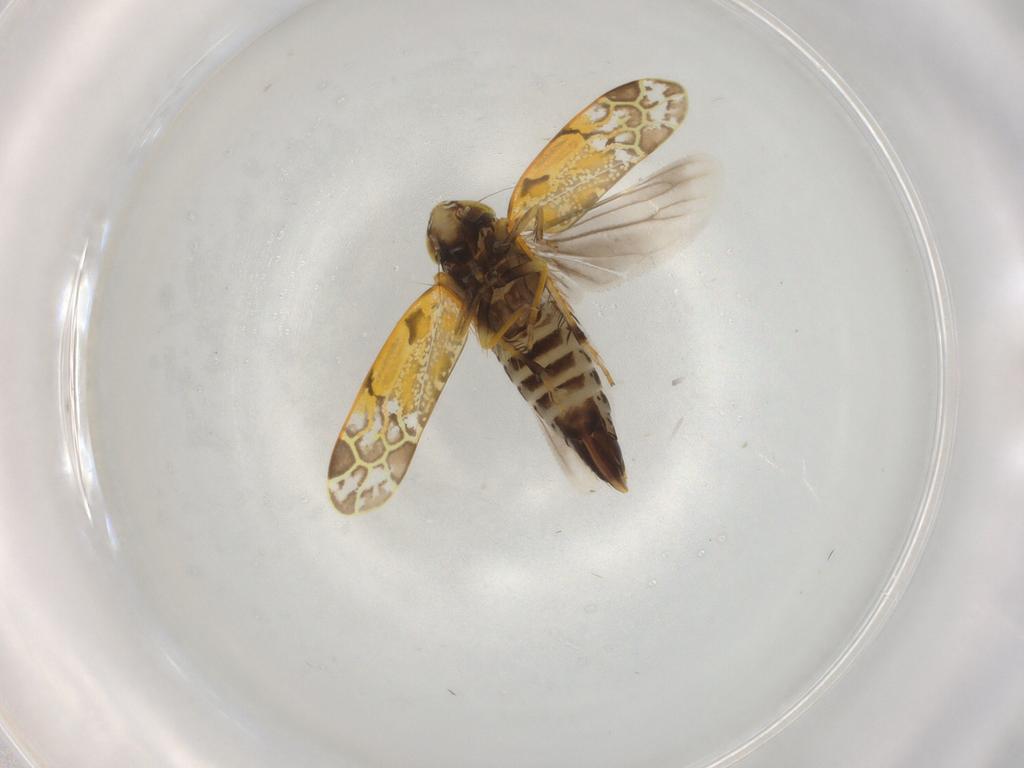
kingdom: Animalia
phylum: Arthropoda
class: Insecta
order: Hemiptera
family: Cicadellidae
